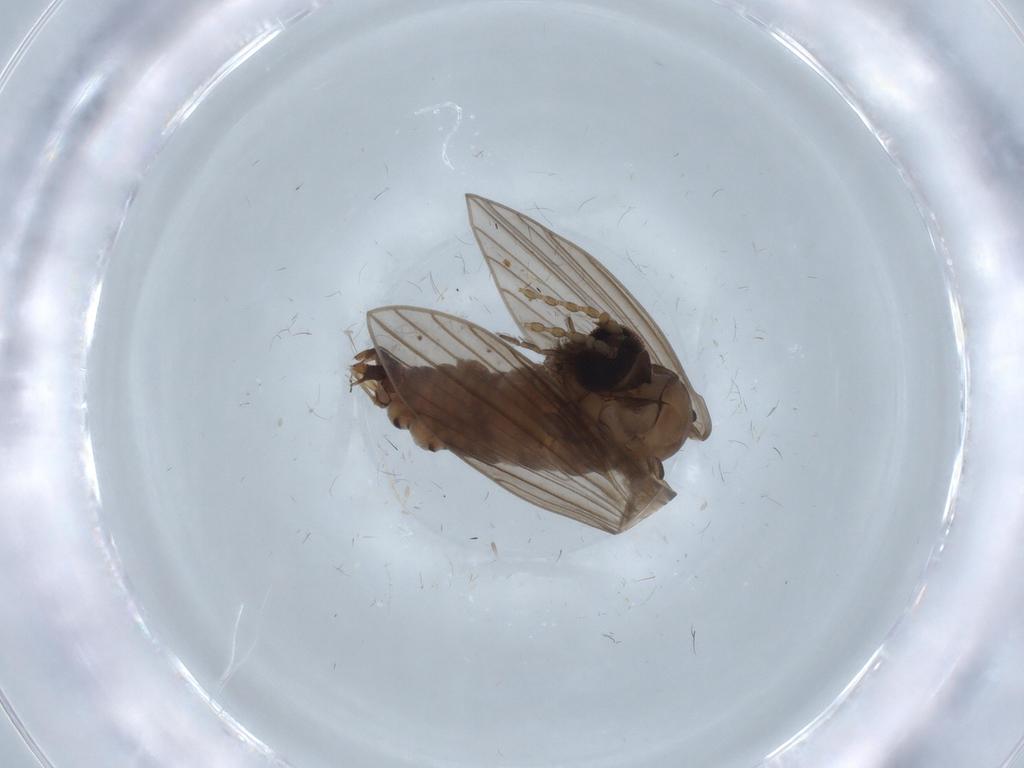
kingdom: Animalia
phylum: Arthropoda
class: Insecta
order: Diptera
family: Psychodidae
